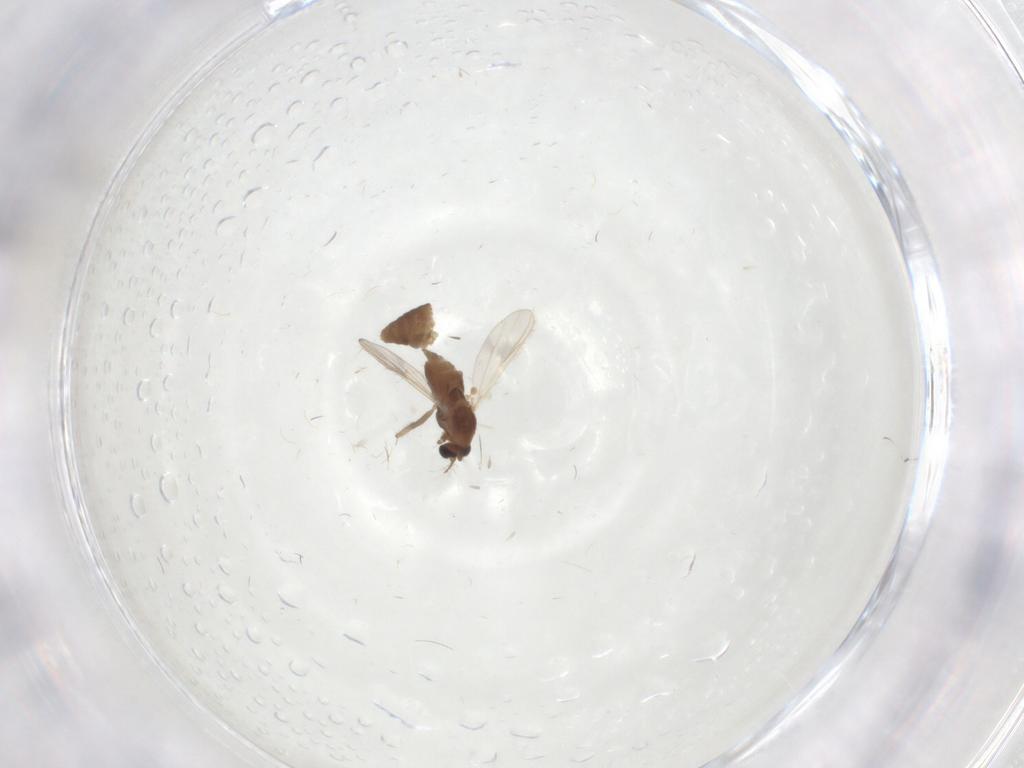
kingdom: Animalia
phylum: Arthropoda
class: Insecta
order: Diptera
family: Chironomidae
